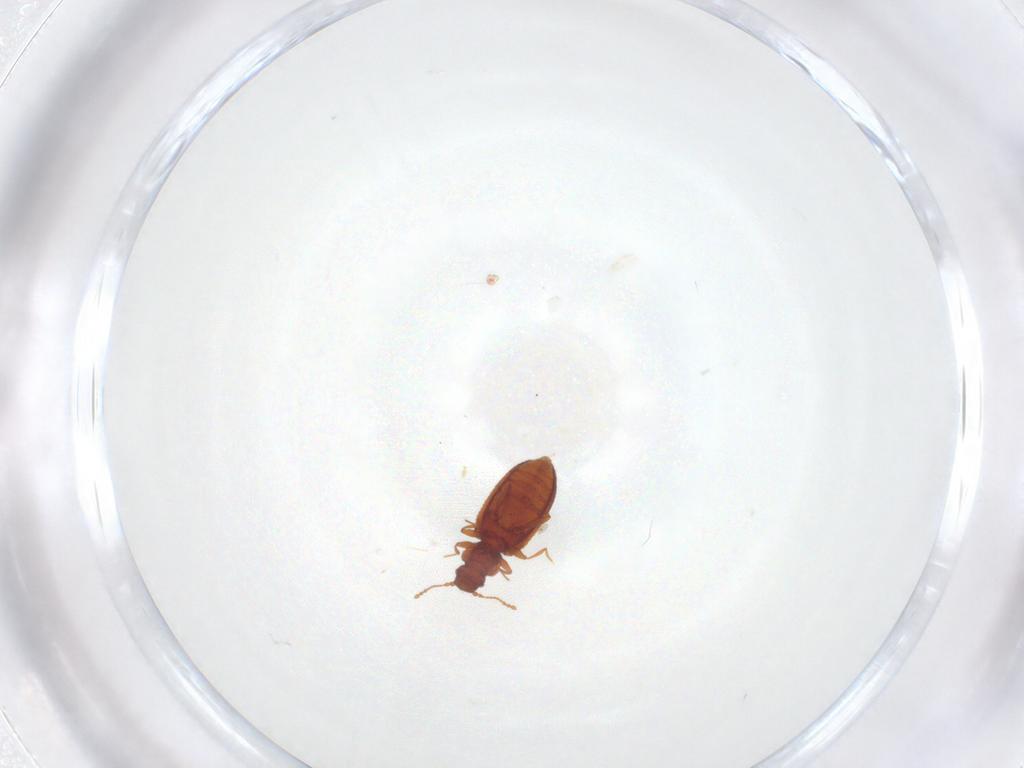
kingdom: Animalia
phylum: Arthropoda
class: Insecta
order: Coleoptera
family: Latridiidae
